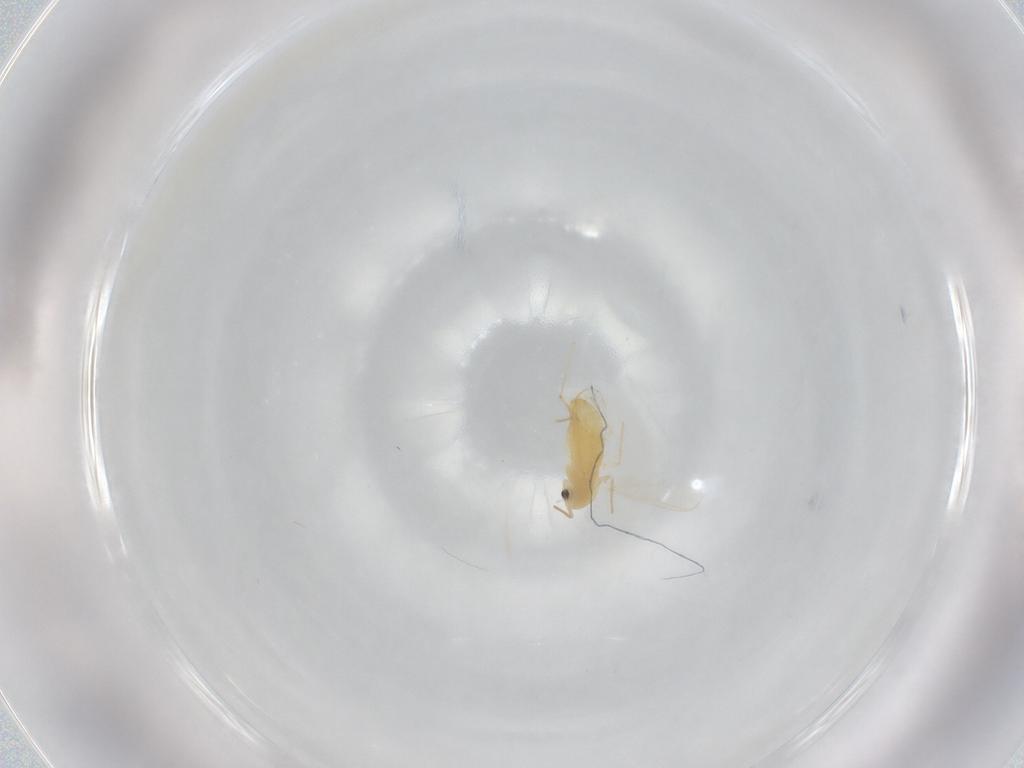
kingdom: Animalia
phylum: Arthropoda
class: Insecta
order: Diptera
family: Chironomidae
